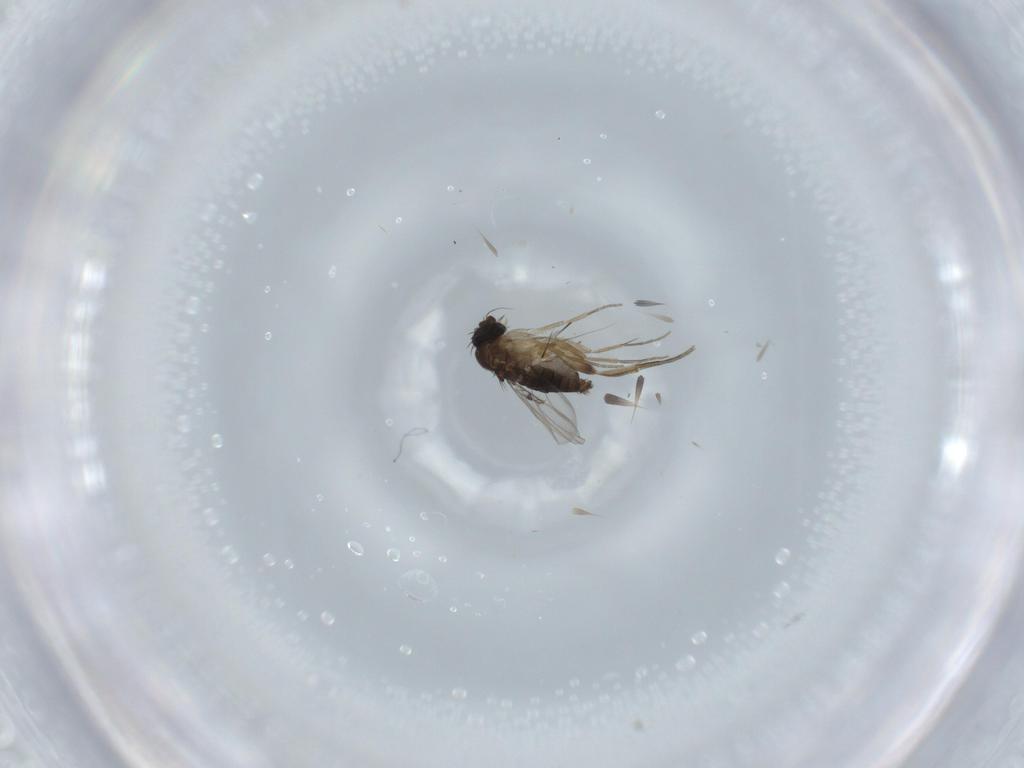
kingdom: Animalia
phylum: Arthropoda
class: Insecta
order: Diptera
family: Phoridae
